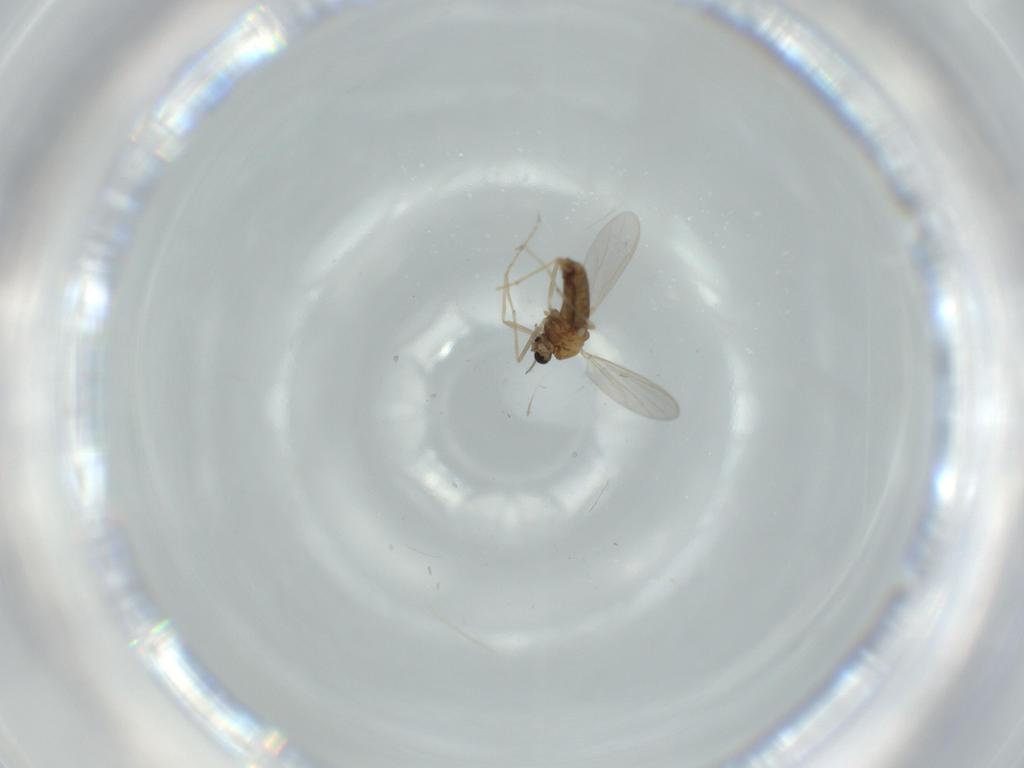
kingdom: Animalia
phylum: Arthropoda
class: Insecta
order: Diptera
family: Chironomidae
